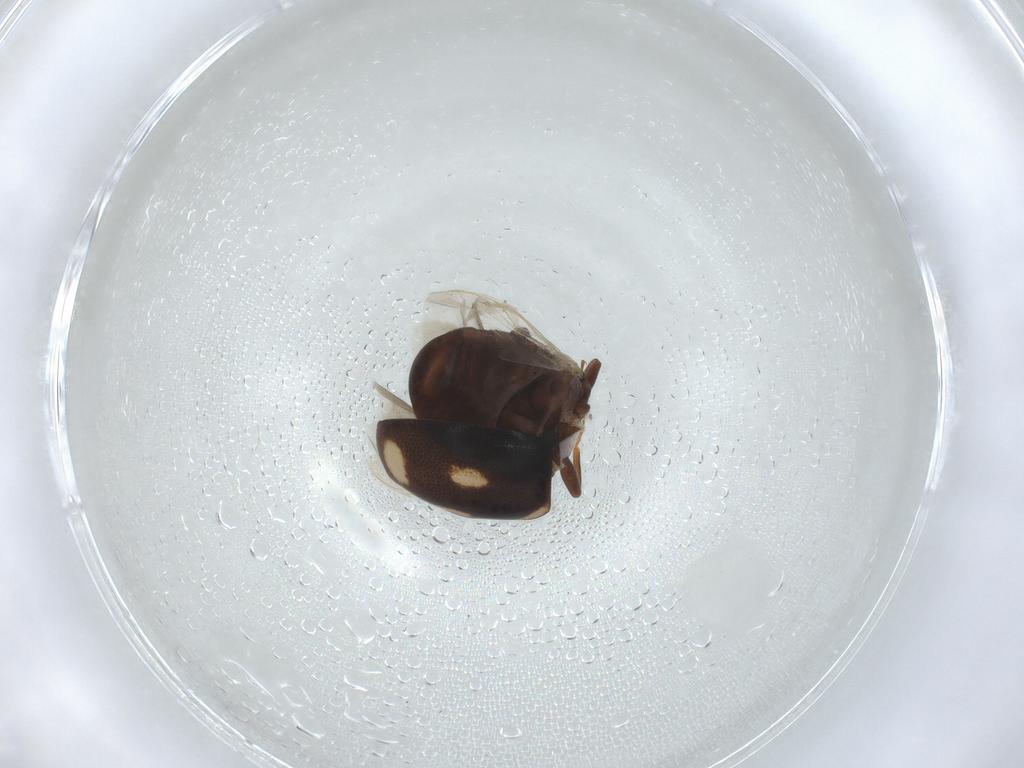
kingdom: Animalia
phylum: Arthropoda
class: Insecta
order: Coleoptera
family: Coccinellidae
